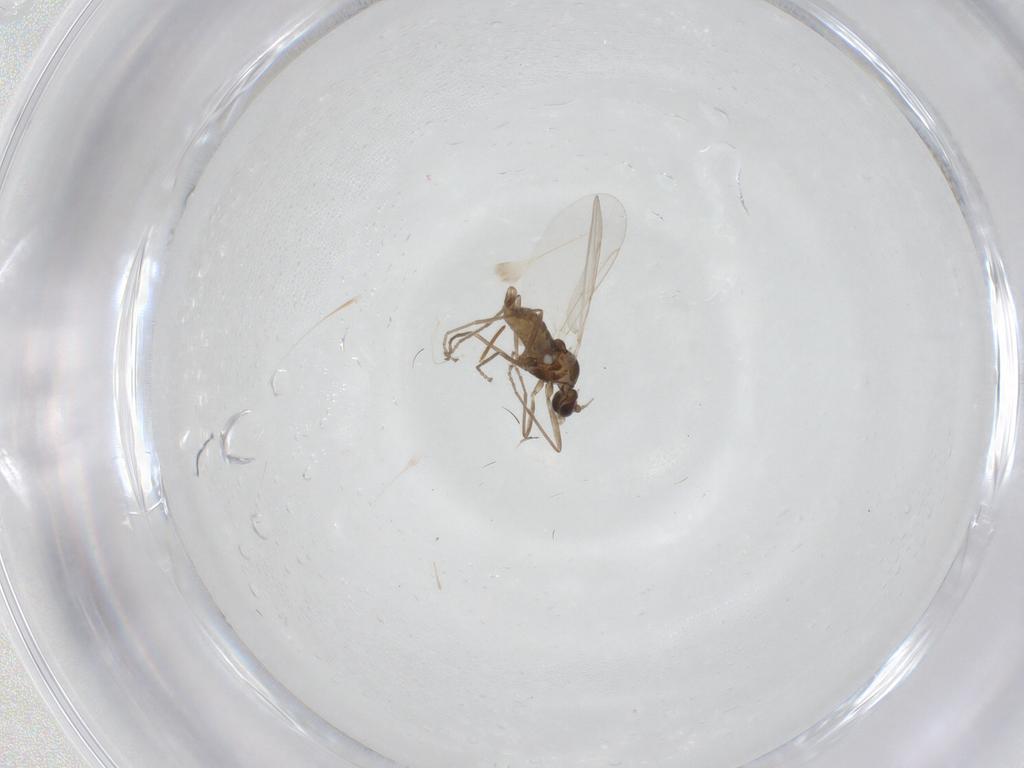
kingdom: Animalia
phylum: Arthropoda
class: Insecta
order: Diptera
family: Cecidomyiidae
